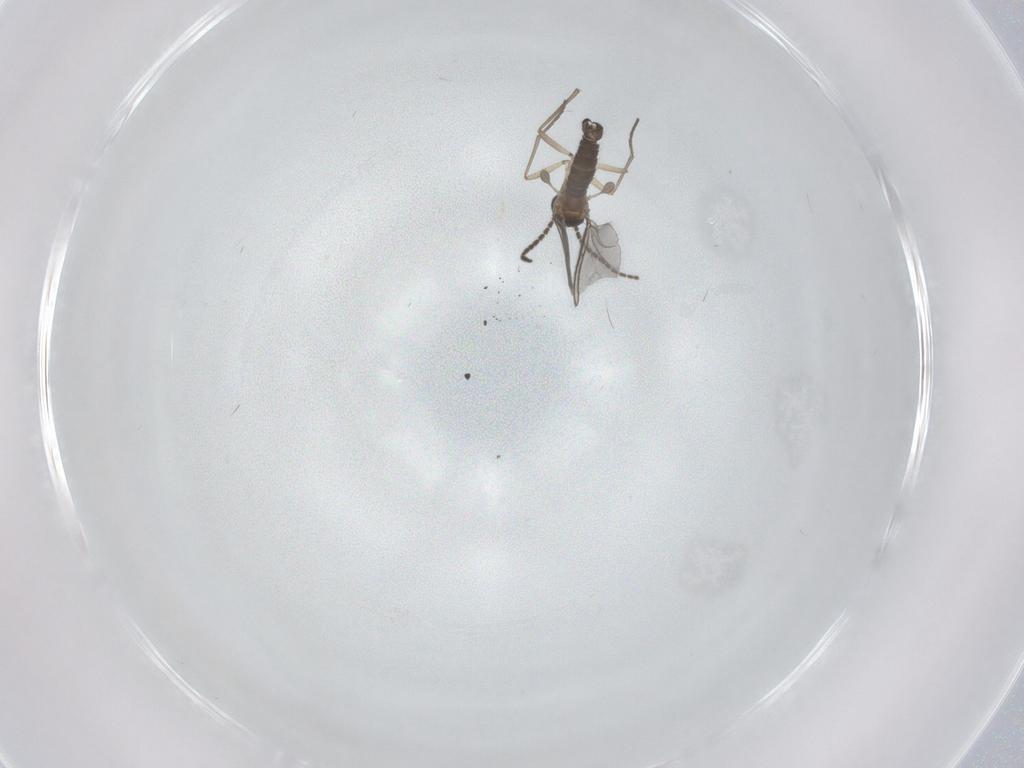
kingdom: Animalia
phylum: Arthropoda
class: Insecta
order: Diptera
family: Sciaridae
